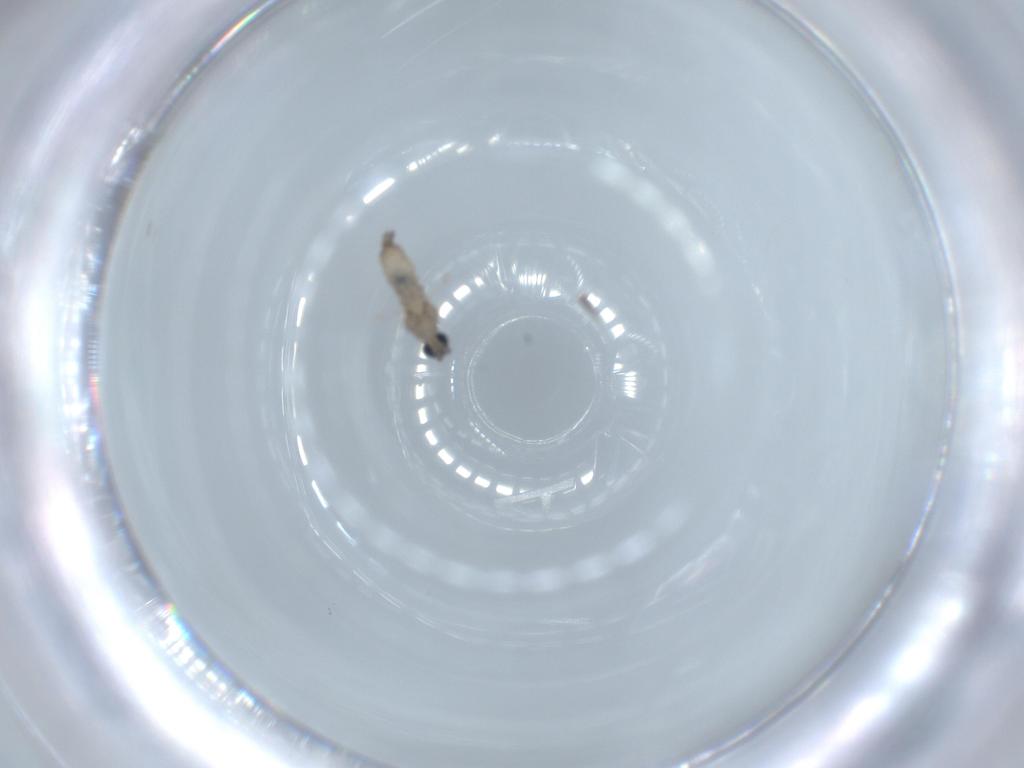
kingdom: Animalia
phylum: Arthropoda
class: Insecta
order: Diptera
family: Cecidomyiidae
